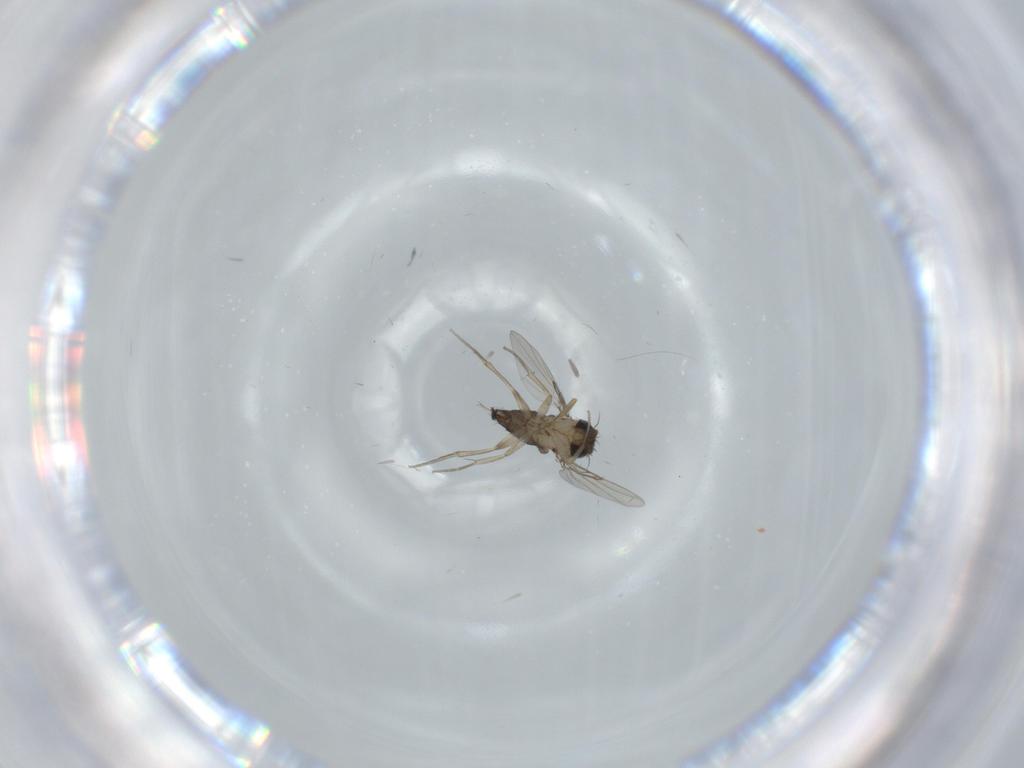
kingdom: Animalia
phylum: Arthropoda
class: Insecta
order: Diptera
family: Phoridae
